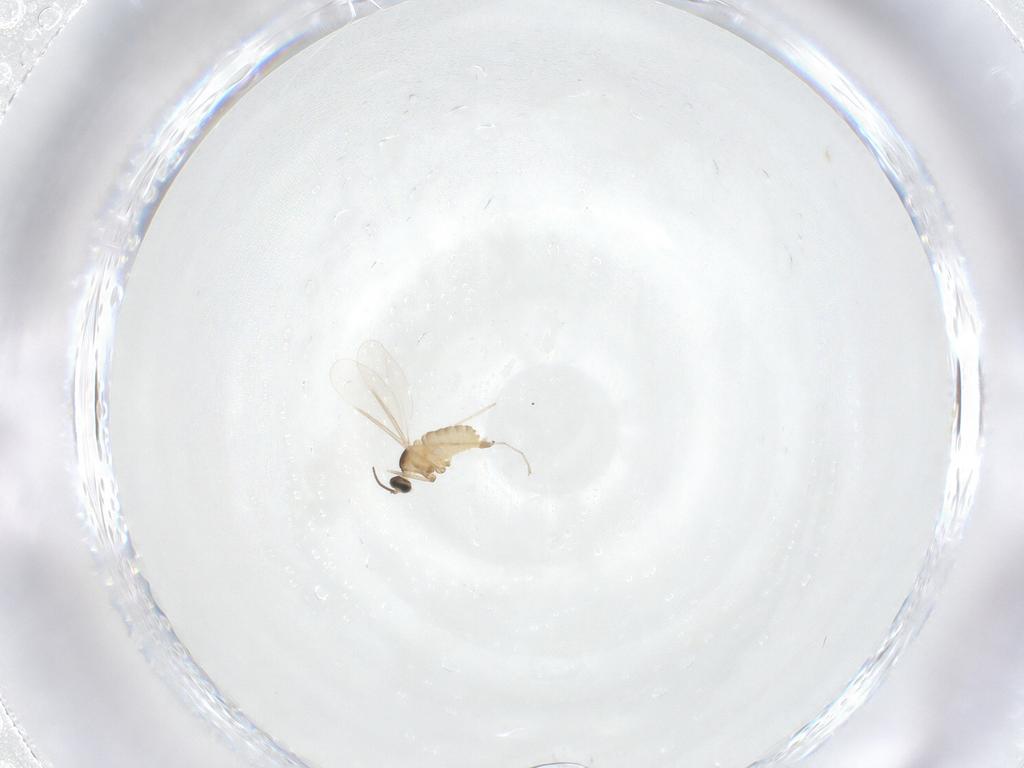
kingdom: Animalia
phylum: Arthropoda
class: Insecta
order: Diptera
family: Cecidomyiidae
